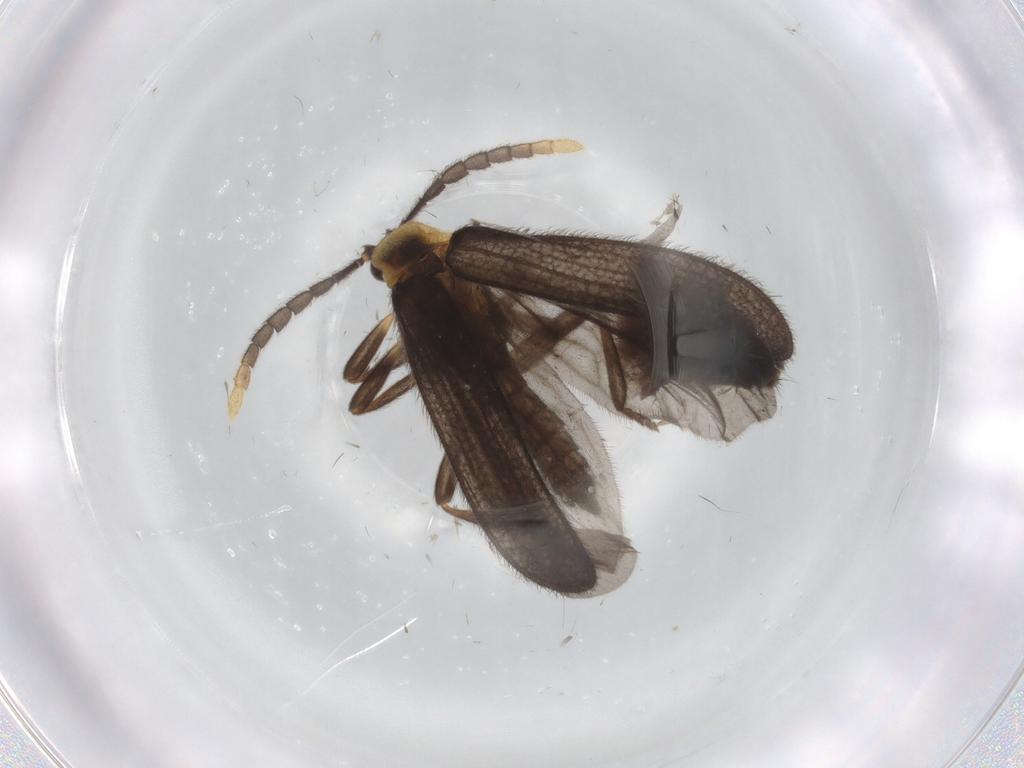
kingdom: Animalia
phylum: Arthropoda
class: Insecta
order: Coleoptera
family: Lycidae
